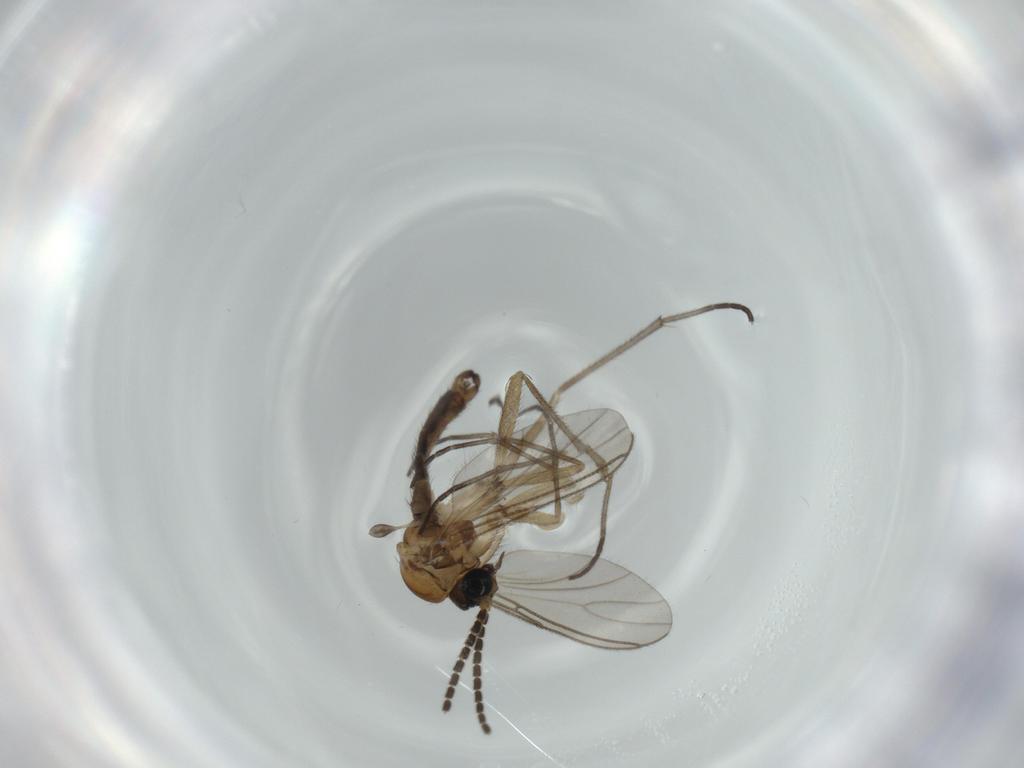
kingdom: Animalia
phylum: Arthropoda
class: Insecta
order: Diptera
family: Sciaridae
